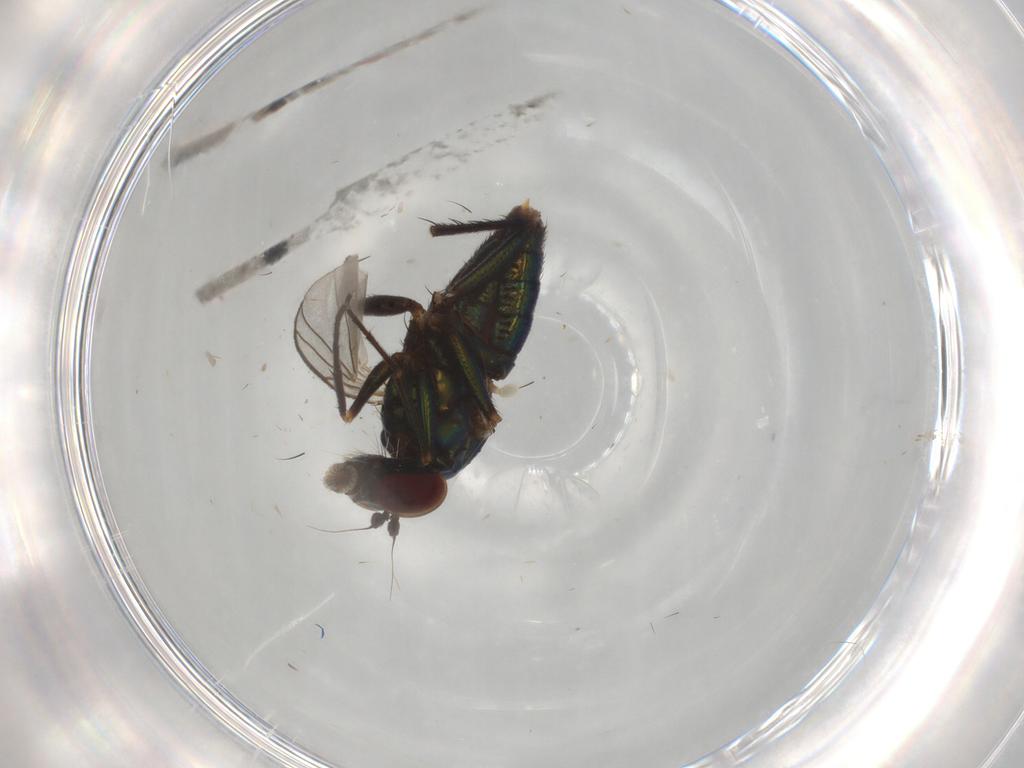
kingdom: Animalia
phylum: Arthropoda
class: Insecta
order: Diptera
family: Dolichopodidae
